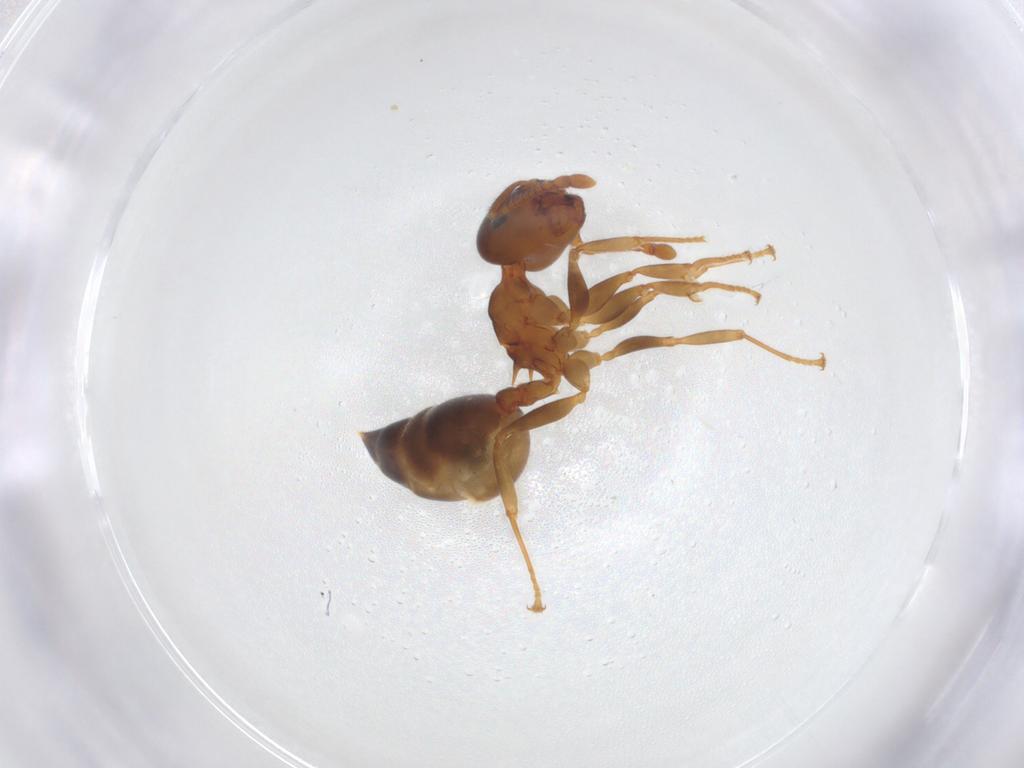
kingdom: Animalia
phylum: Arthropoda
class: Insecta
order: Hymenoptera
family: Formicidae
